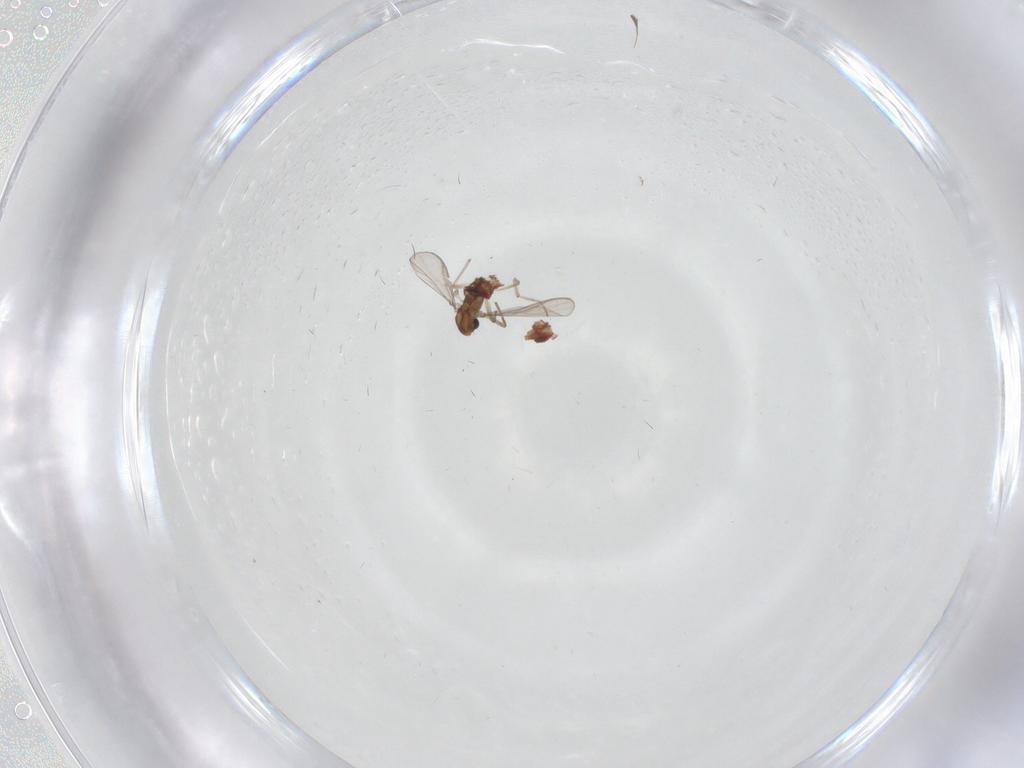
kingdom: Animalia
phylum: Arthropoda
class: Insecta
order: Diptera
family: Chironomidae
